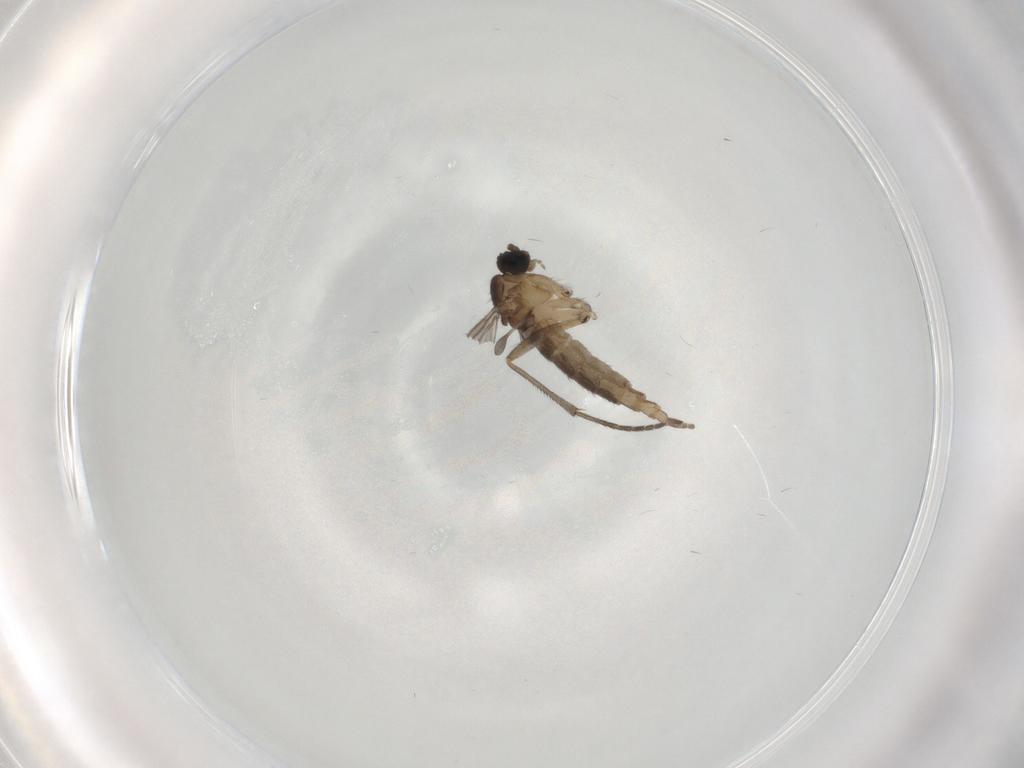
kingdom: Animalia
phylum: Arthropoda
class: Insecta
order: Diptera
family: Sciaridae
